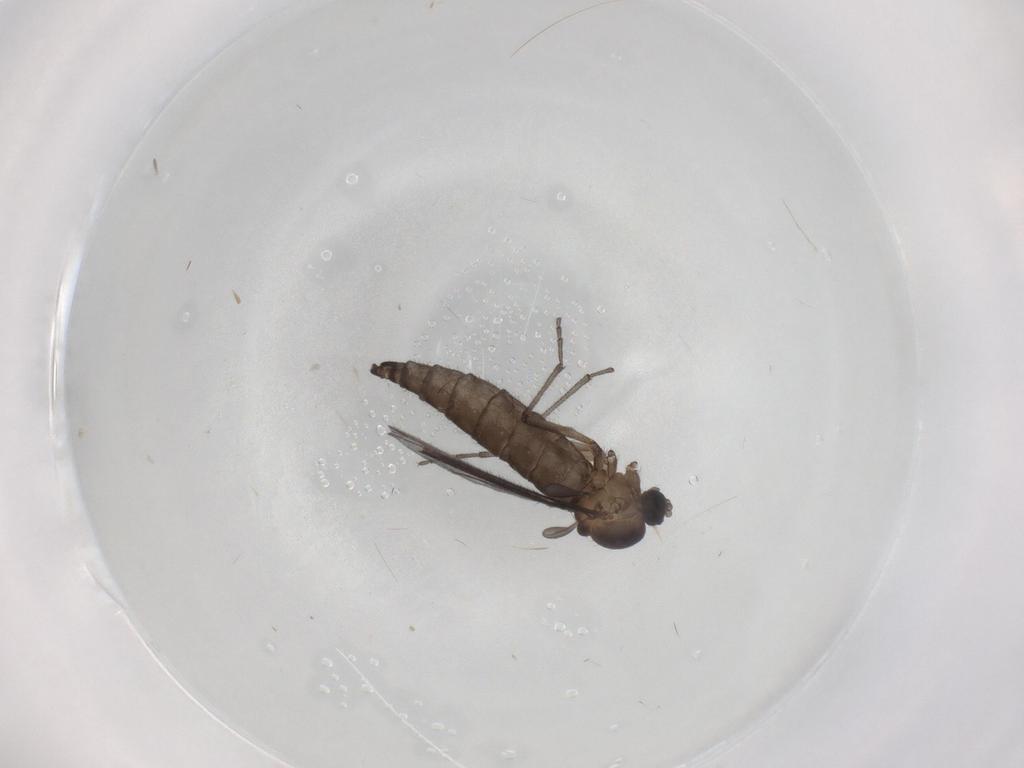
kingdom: Animalia
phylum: Arthropoda
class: Insecta
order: Diptera
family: Sciaridae
